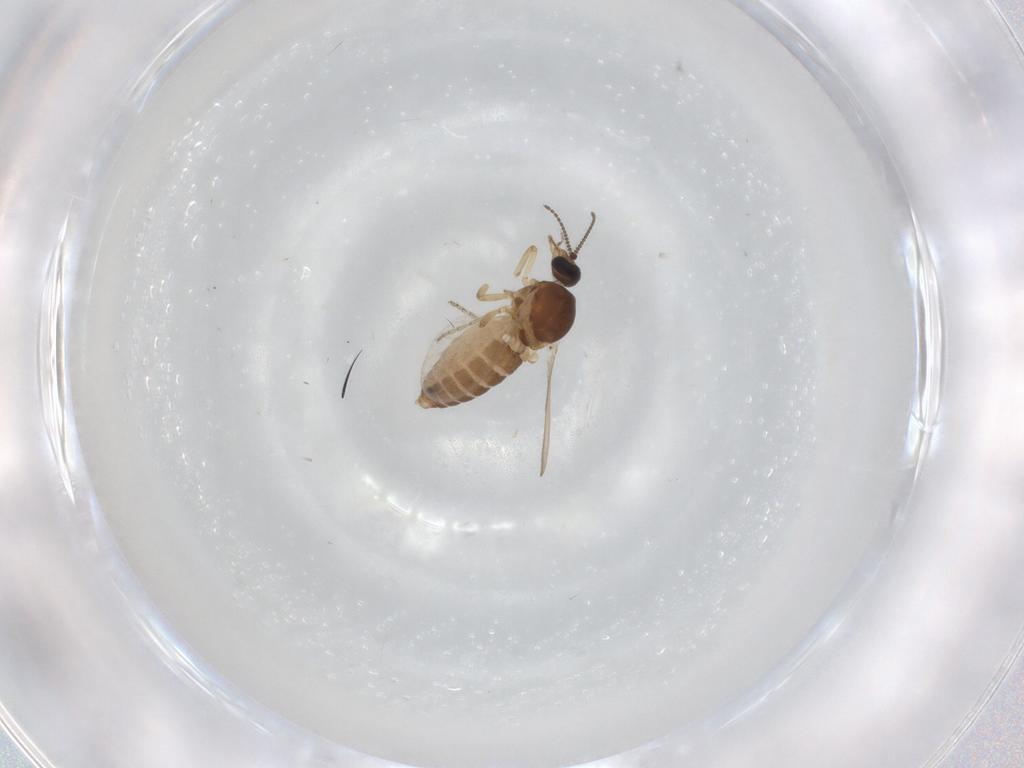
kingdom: Animalia
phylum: Arthropoda
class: Insecta
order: Diptera
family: Ceratopogonidae
